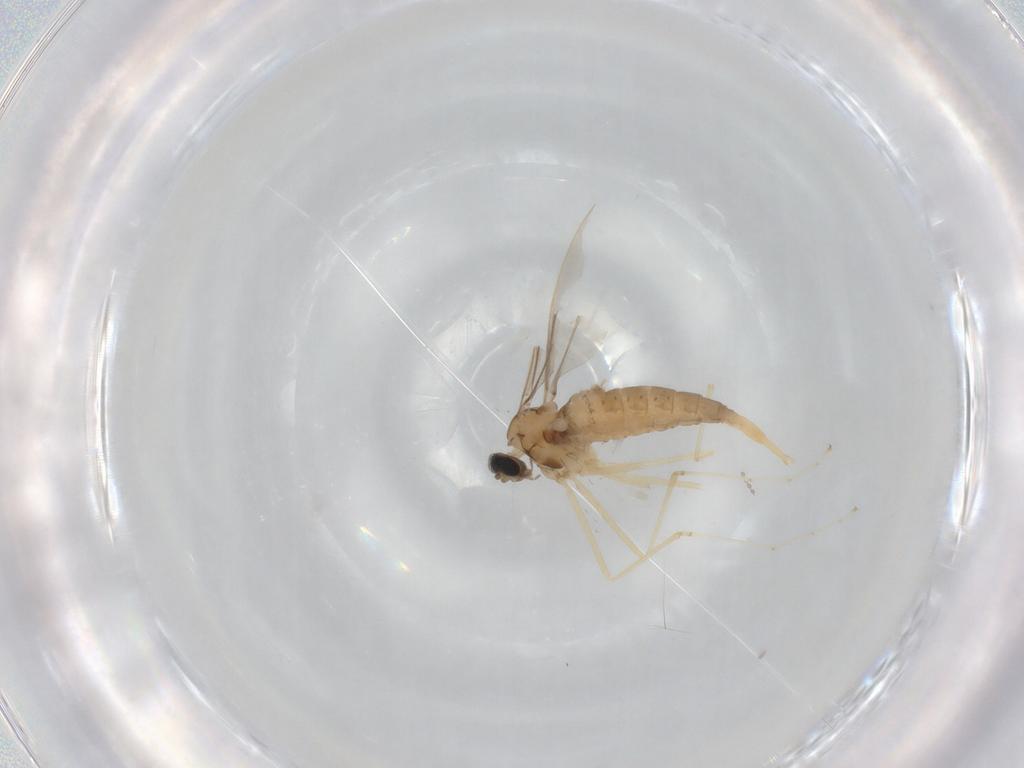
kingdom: Animalia
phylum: Arthropoda
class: Insecta
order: Diptera
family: Cecidomyiidae
